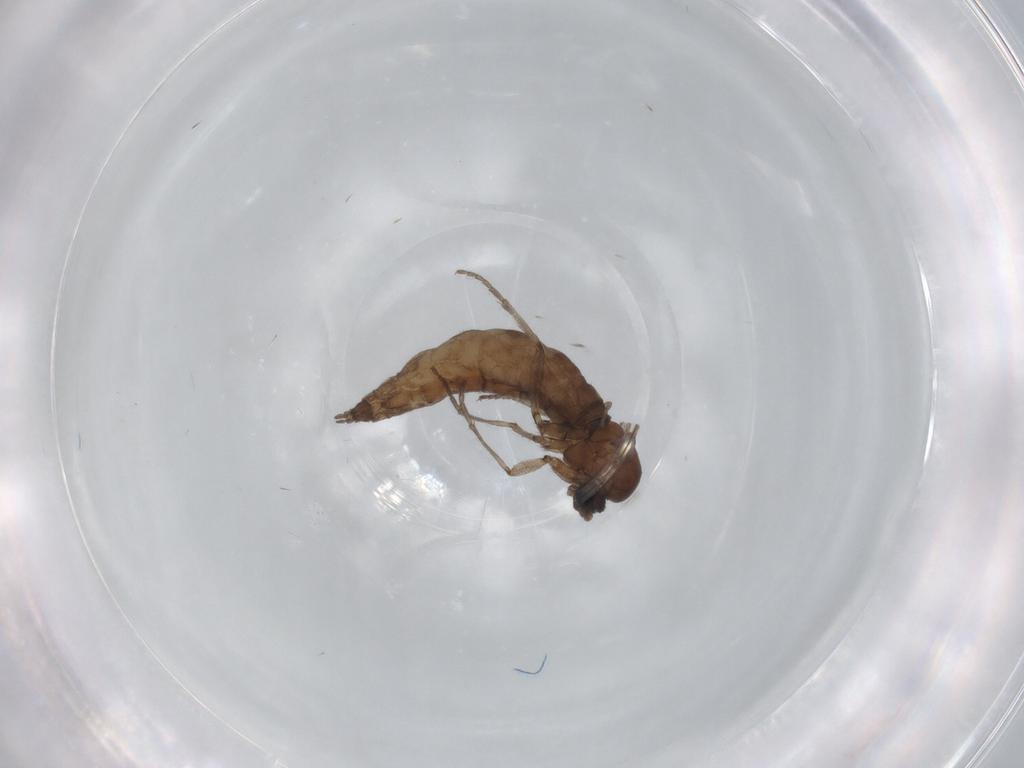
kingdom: Animalia
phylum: Arthropoda
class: Insecta
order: Diptera
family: Sciaridae
